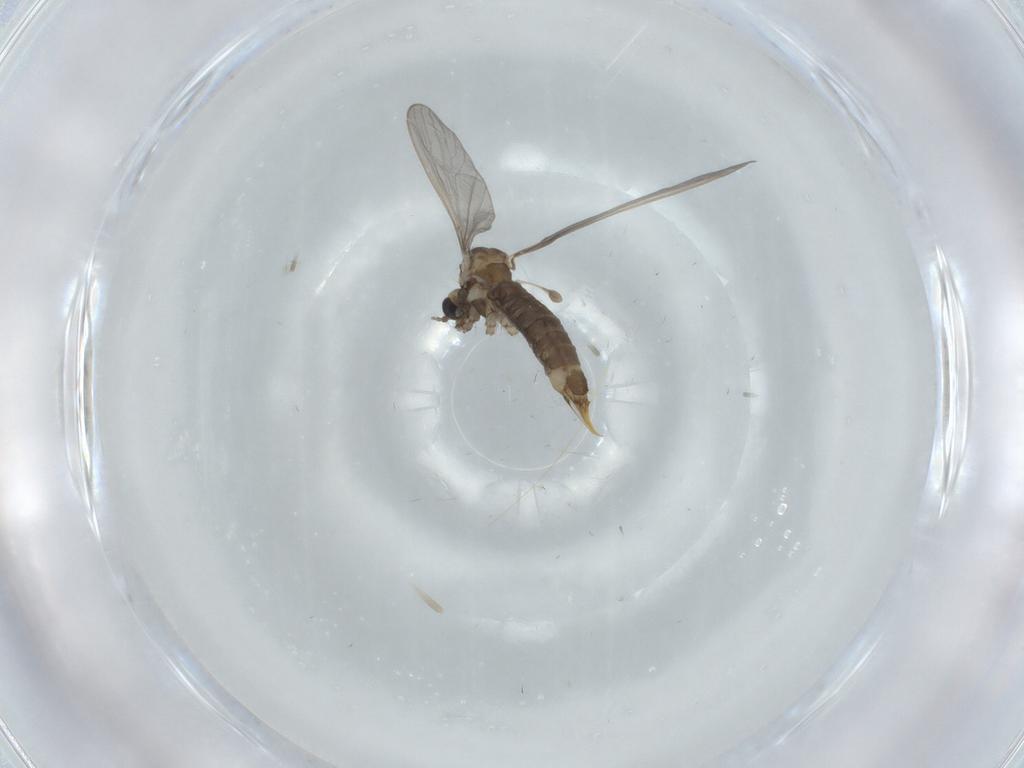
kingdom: Animalia
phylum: Arthropoda
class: Insecta
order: Diptera
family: Limoniidae
